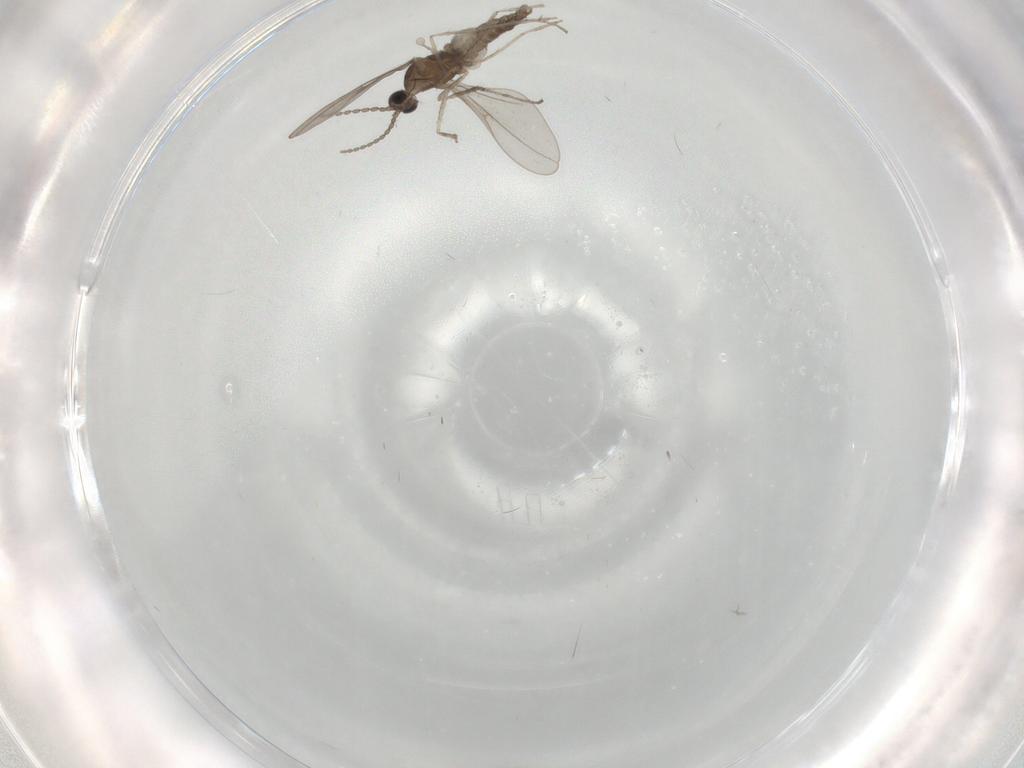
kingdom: Animalia
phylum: Arthropoda
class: Insecta
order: Diptera
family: Cecidomyiidae
